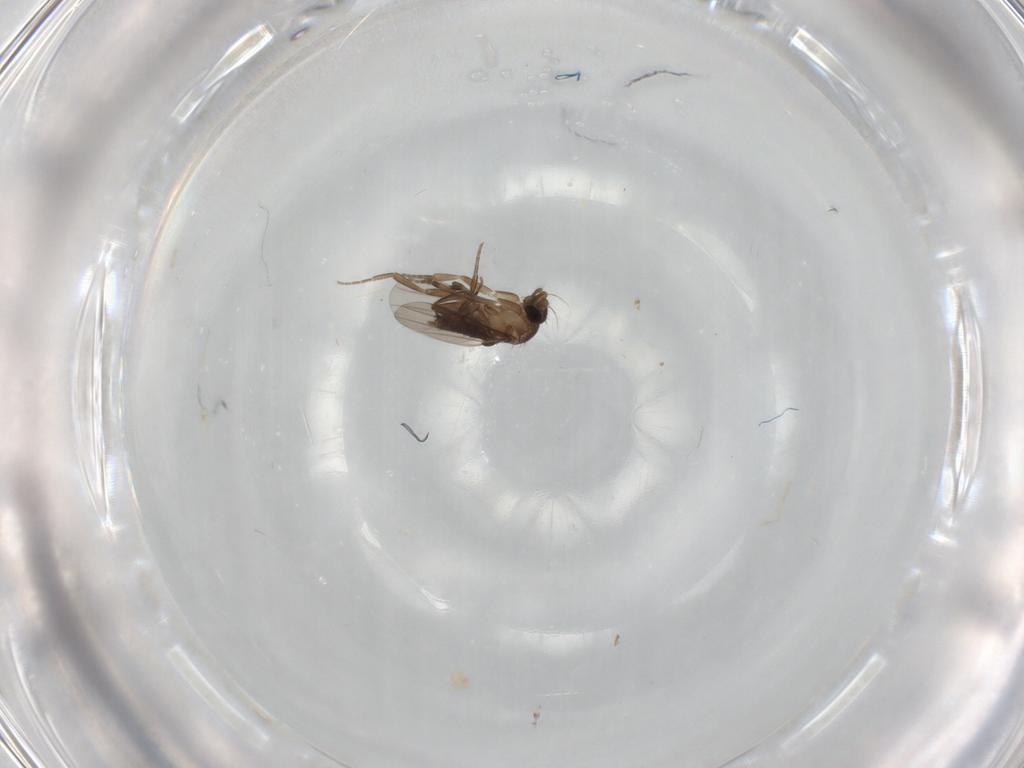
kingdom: Animalia
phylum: Arthropoda
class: Insecta
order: Diptera
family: Phoridae
